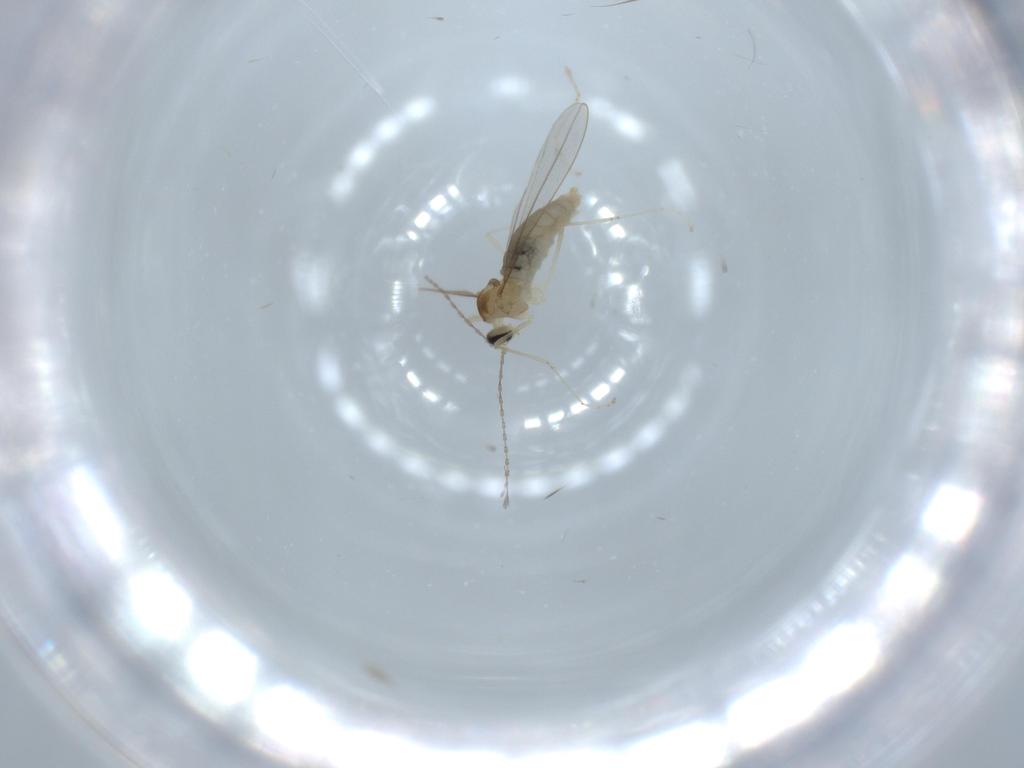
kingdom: Animalia
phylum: Arthropoda
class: Insecta
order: Diptera
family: Cecidomyiidae
